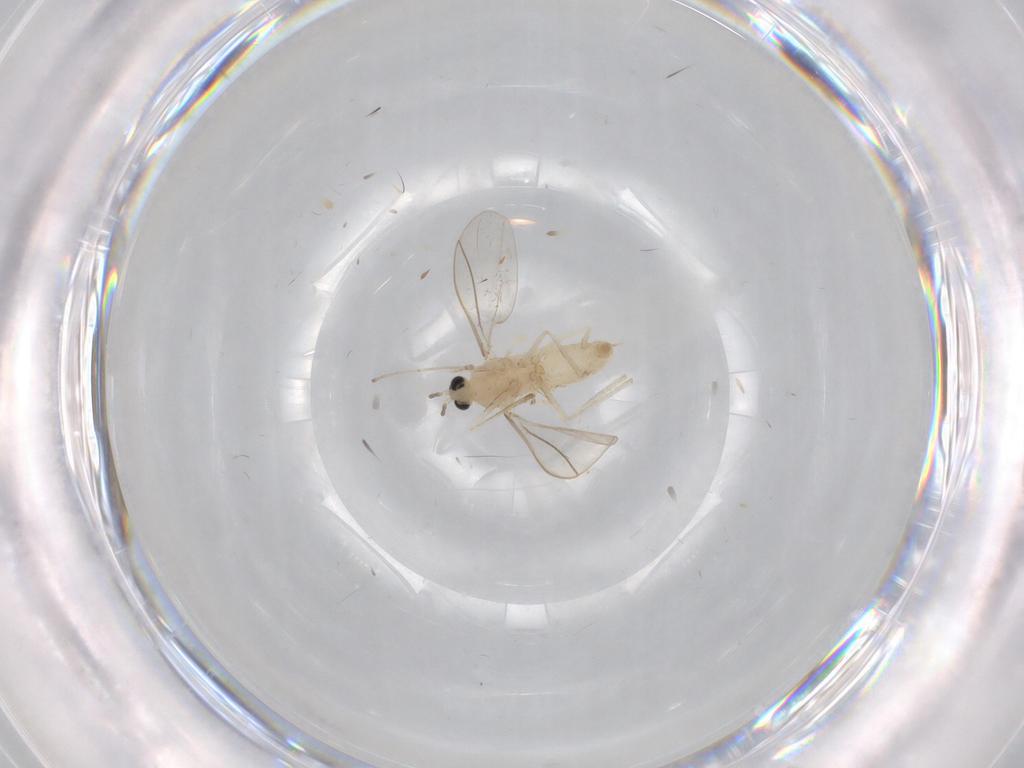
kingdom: Animalia
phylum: Arthropoda
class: Insecta
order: Diptera
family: Cecidomyiidae
